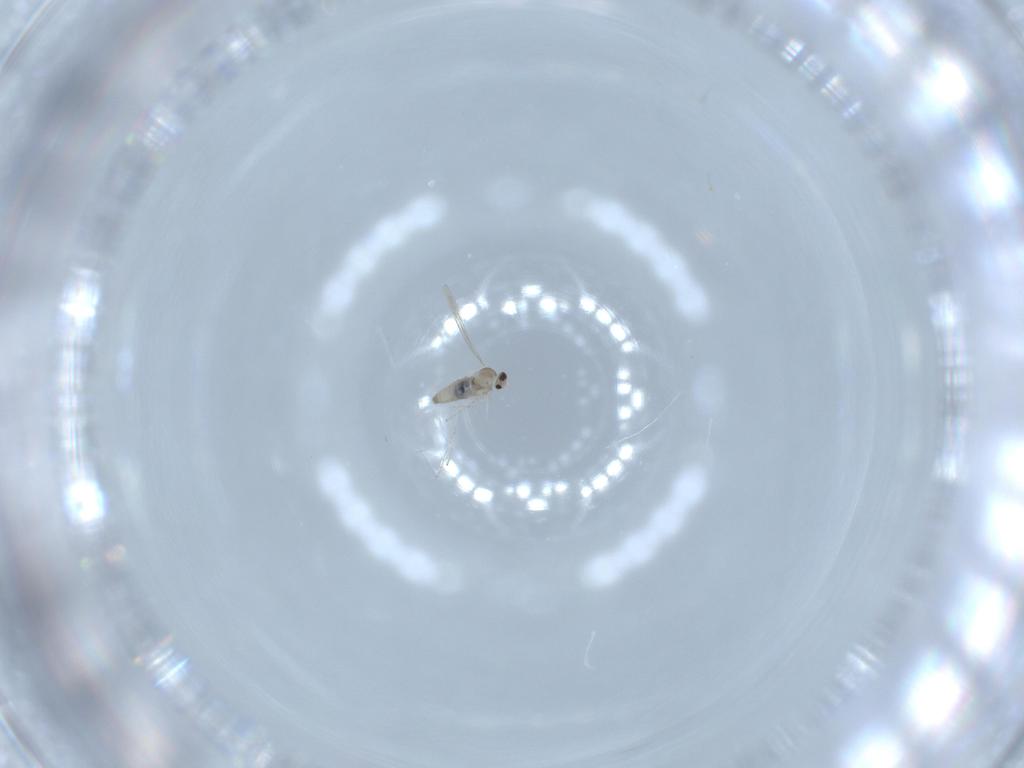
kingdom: Animalia
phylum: Arthropoda
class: Insecta
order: Diptera
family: Cecidomyiidae
